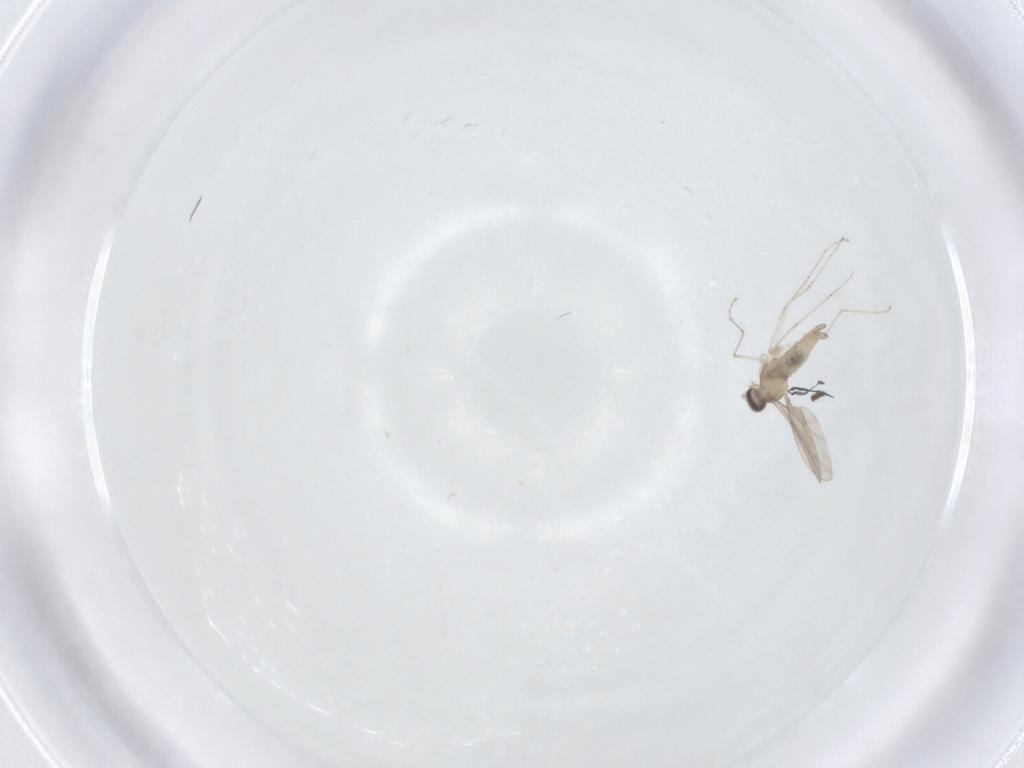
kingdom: Animalia
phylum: Arthropoda
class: Insecta
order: Diptera
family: Cecidomyiidae
